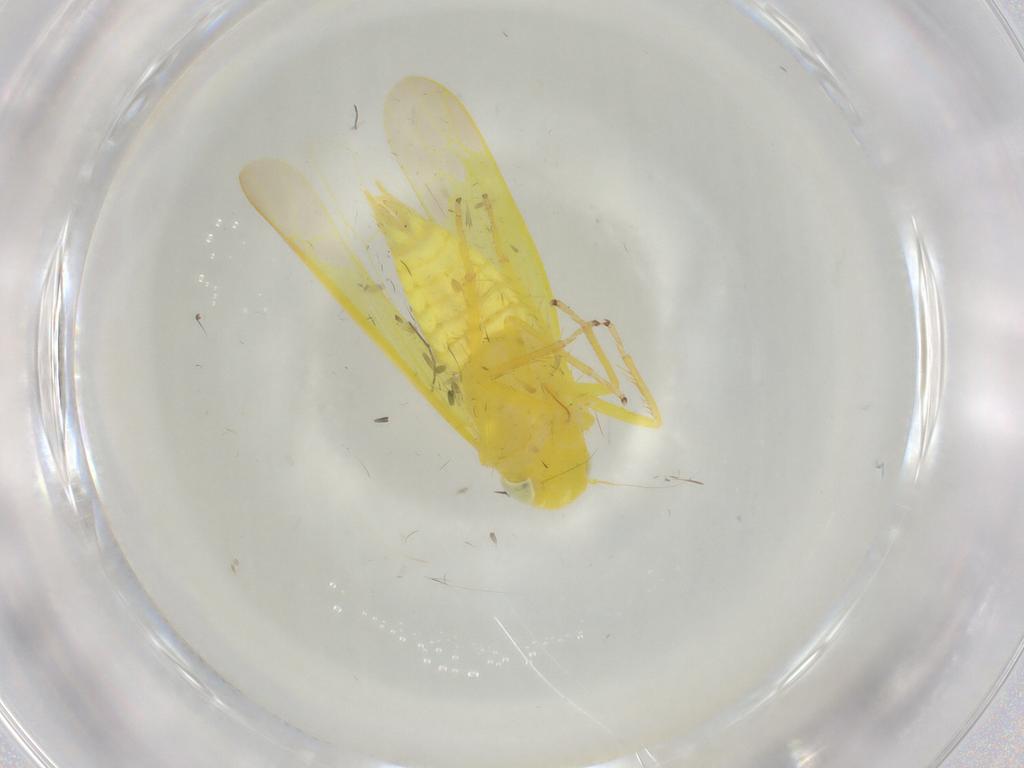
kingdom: Animalia
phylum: Arthropoda
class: Insecta
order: Hemiptera
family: Cicadellidae
